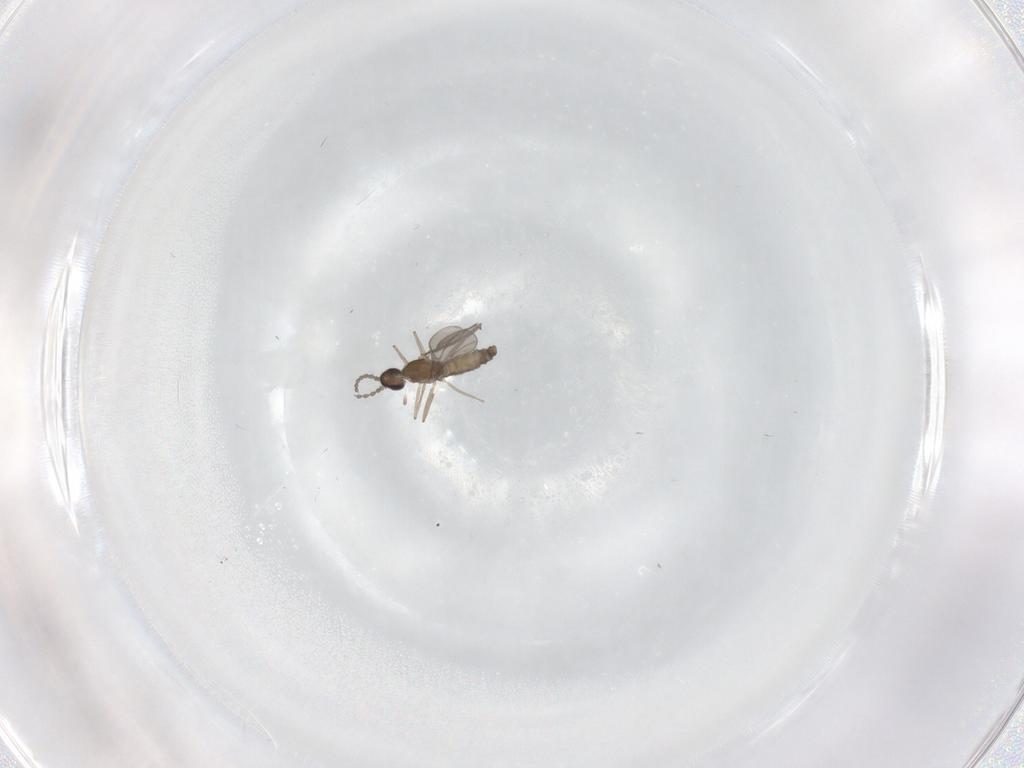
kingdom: Animalia
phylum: Arthropoda
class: Insecta
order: Diptera
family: Cecidomyiidae
